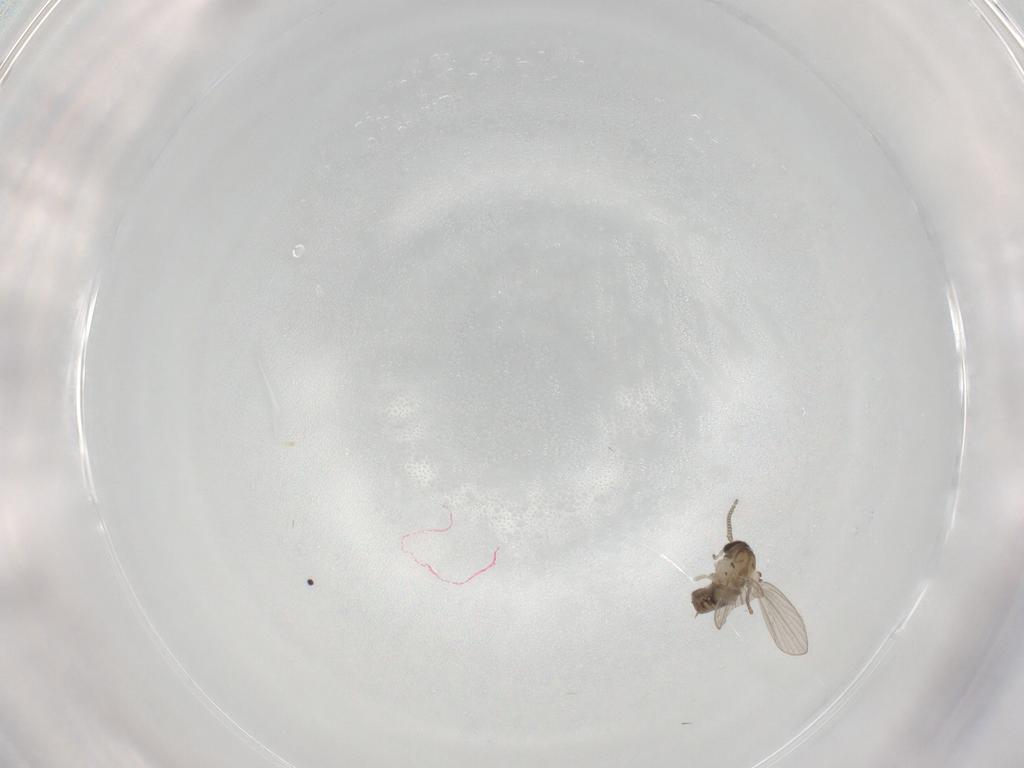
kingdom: Animalia
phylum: Arthropoda
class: Insecta
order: Diptera
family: Psychodidae
